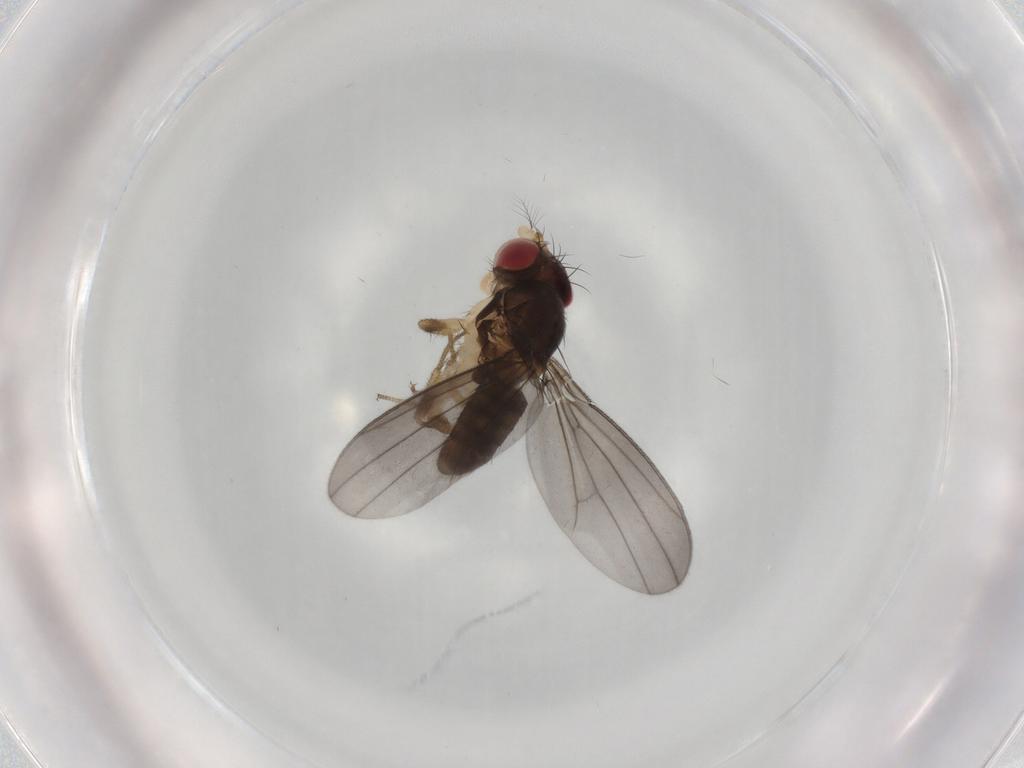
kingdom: Animalia
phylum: Arthropoda
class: Insecta
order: Diptera
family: Drosophilidae
